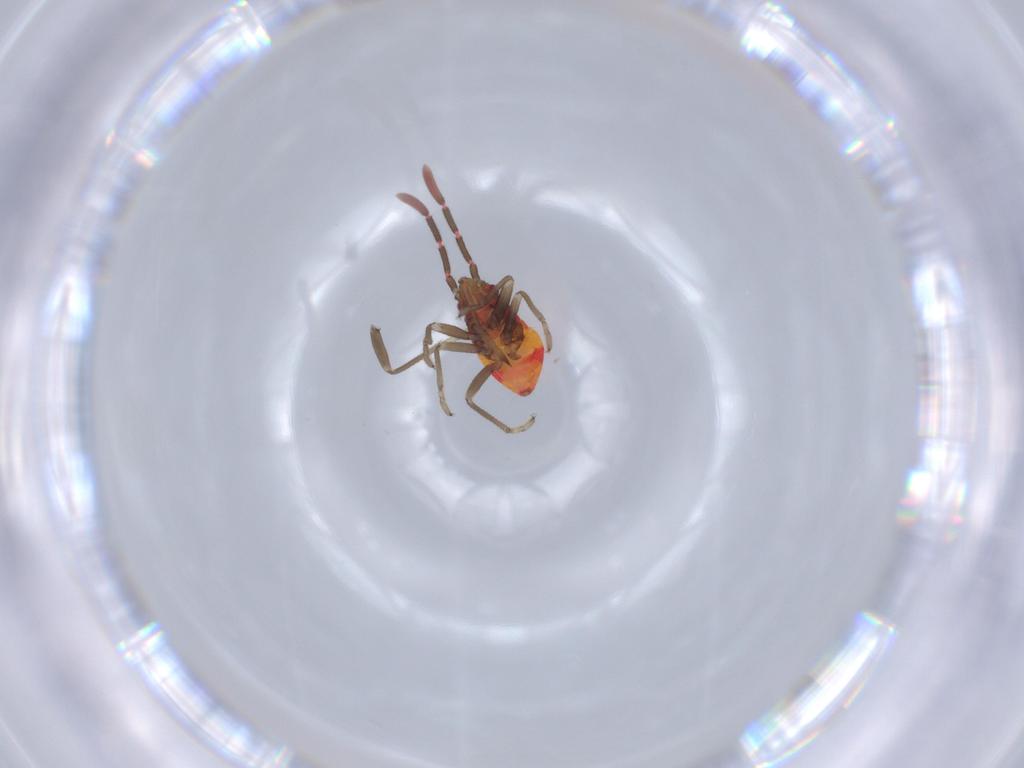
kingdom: Animalia
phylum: Arthropoda
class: Insecta
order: Hemiptera
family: Rhyparochromidae
